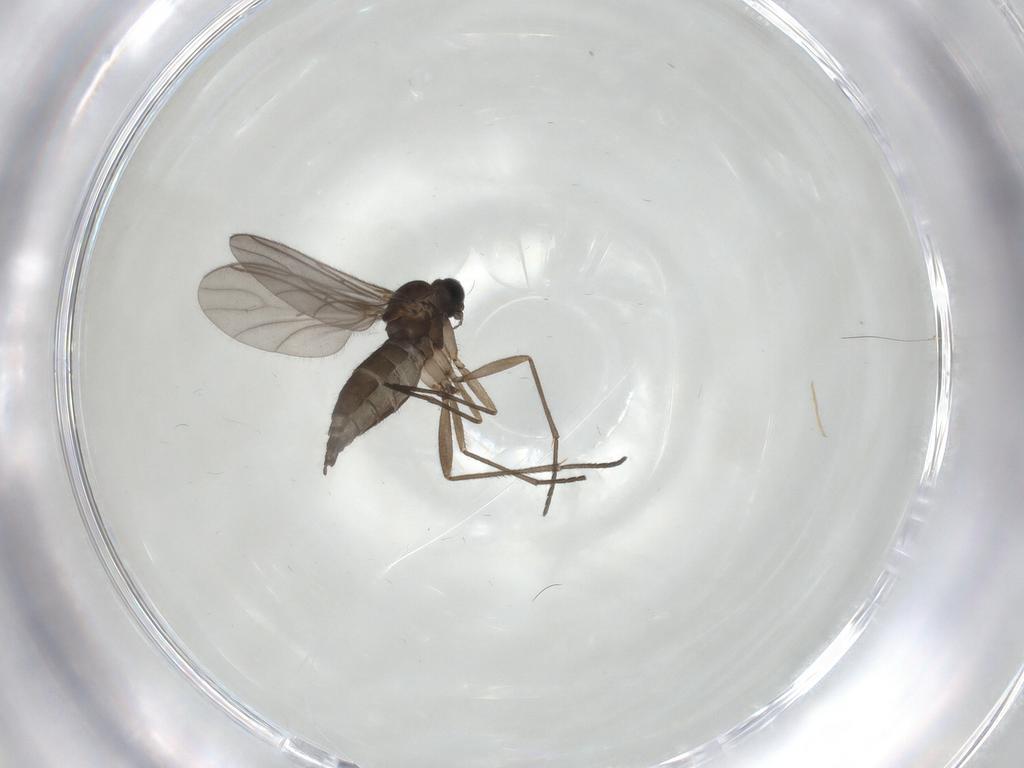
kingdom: Animalia
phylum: Arthropoda
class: Insecta
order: Diptera
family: Sciaridae
